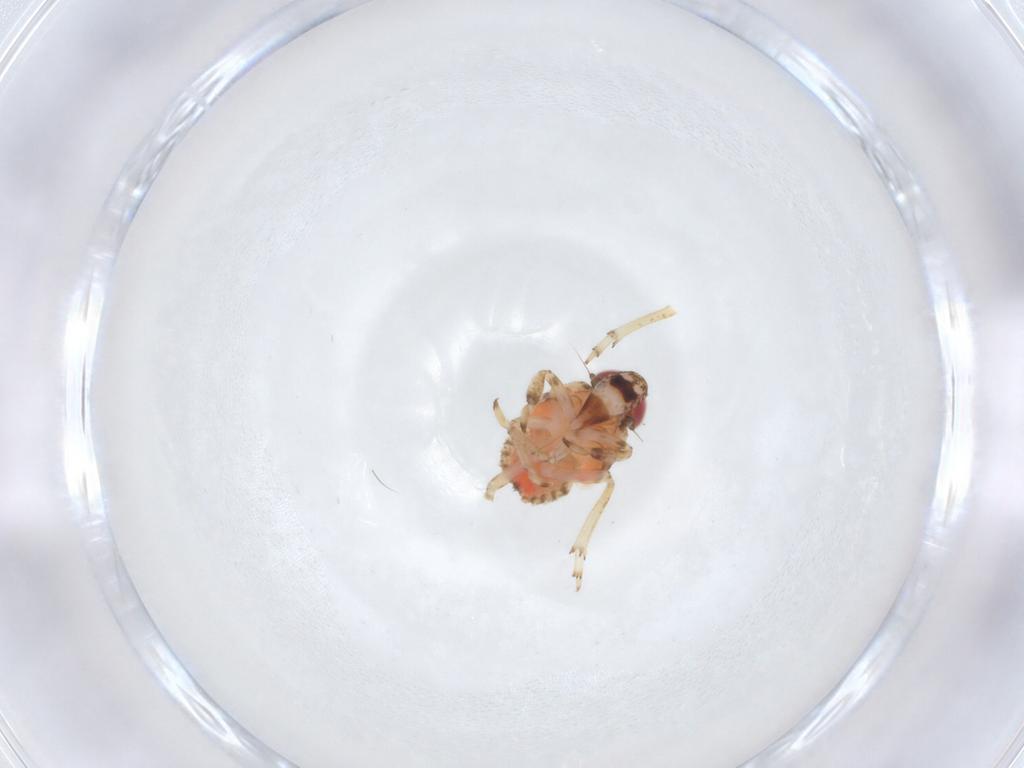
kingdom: Animalia
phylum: Arthropoda
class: Insecta
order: Hemiptera
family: Issidae
